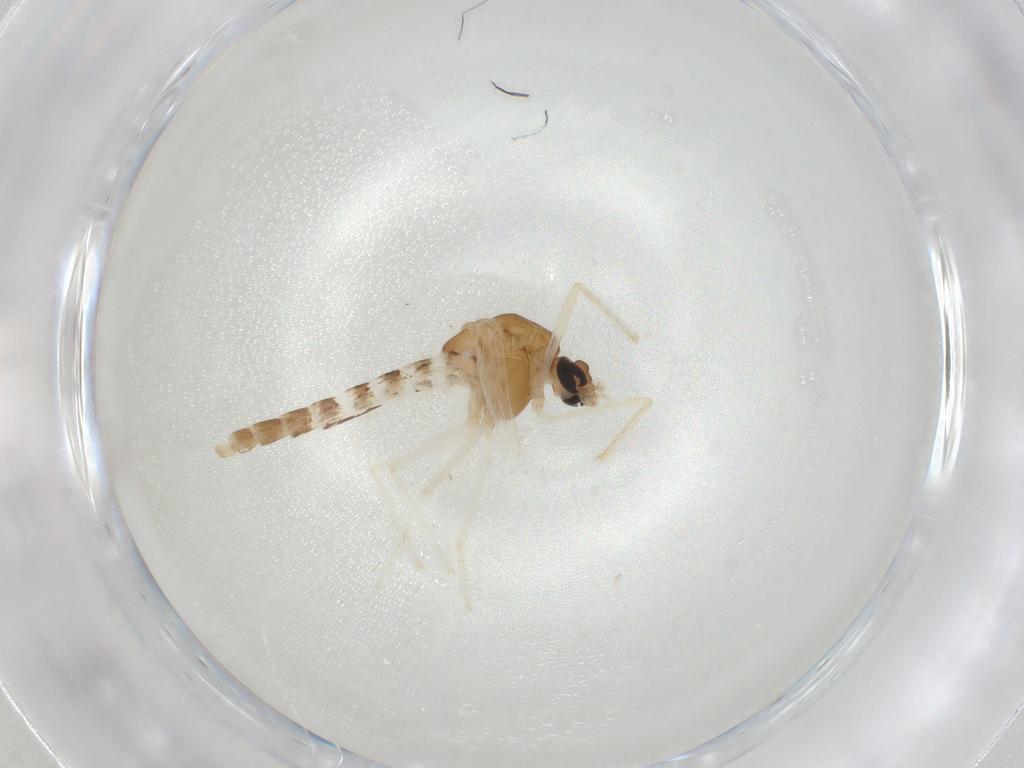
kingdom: Animalia
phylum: Arthropoda
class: Insecta
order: Diptera
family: Chironomidae
